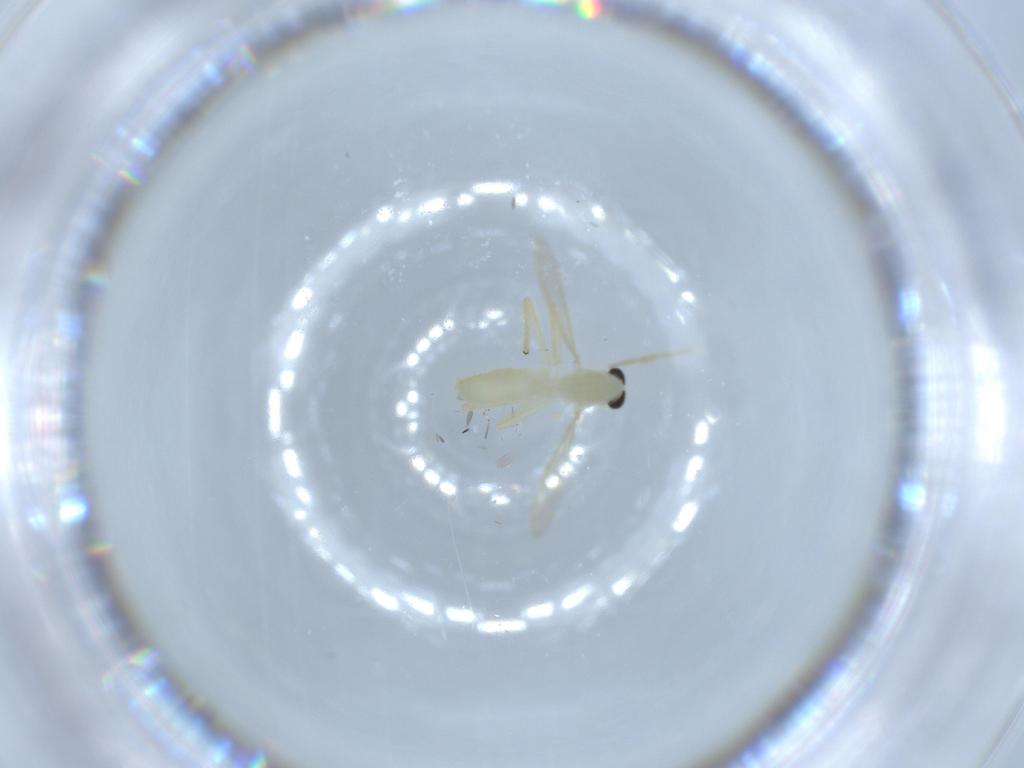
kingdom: Animalia
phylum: Arthropoda
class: Insecta
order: Diptera
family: Chironomidae
